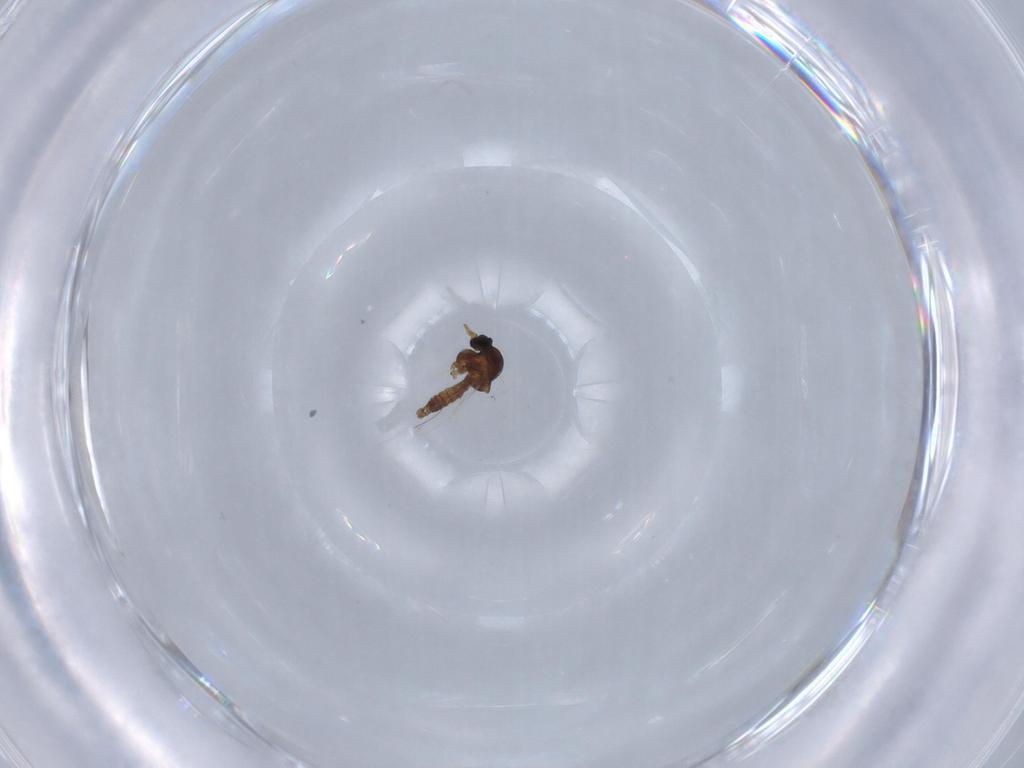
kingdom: Animalia
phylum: Arthropoda
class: Insecta
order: Diptera
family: Ceratopogonidae
